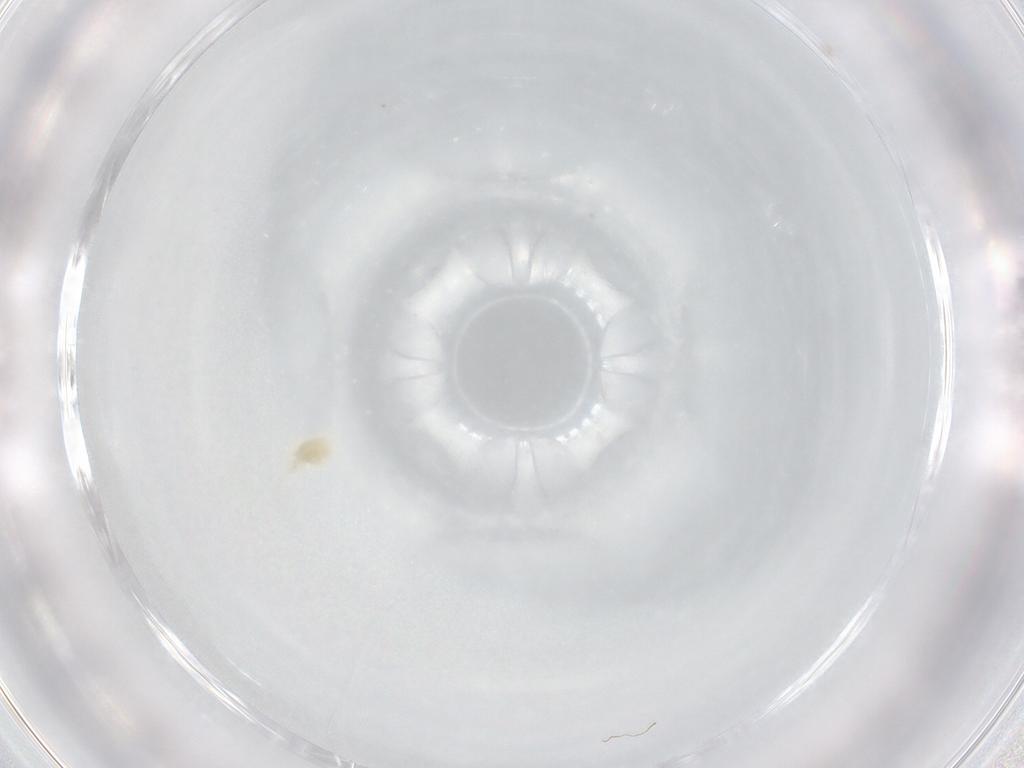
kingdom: Animalia
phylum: Arthropoda
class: Arachnida
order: Trombidiformes
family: Eupodidae
